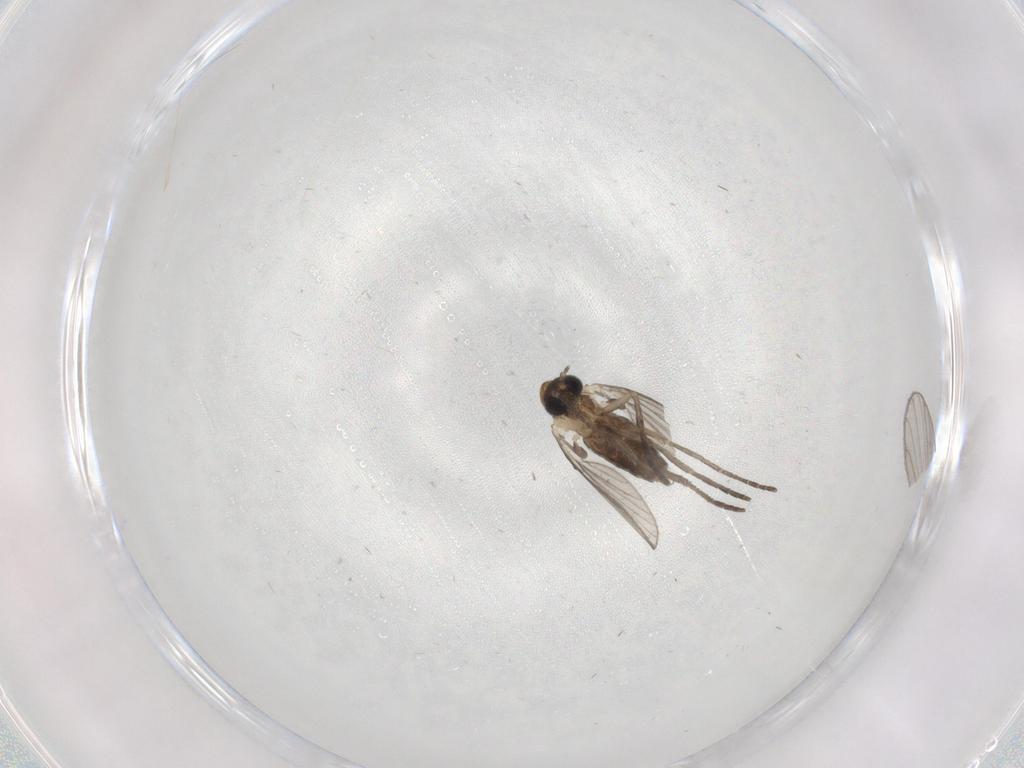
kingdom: Animalia
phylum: Arthropoda
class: Insecta
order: Diptera
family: Psychodidae
